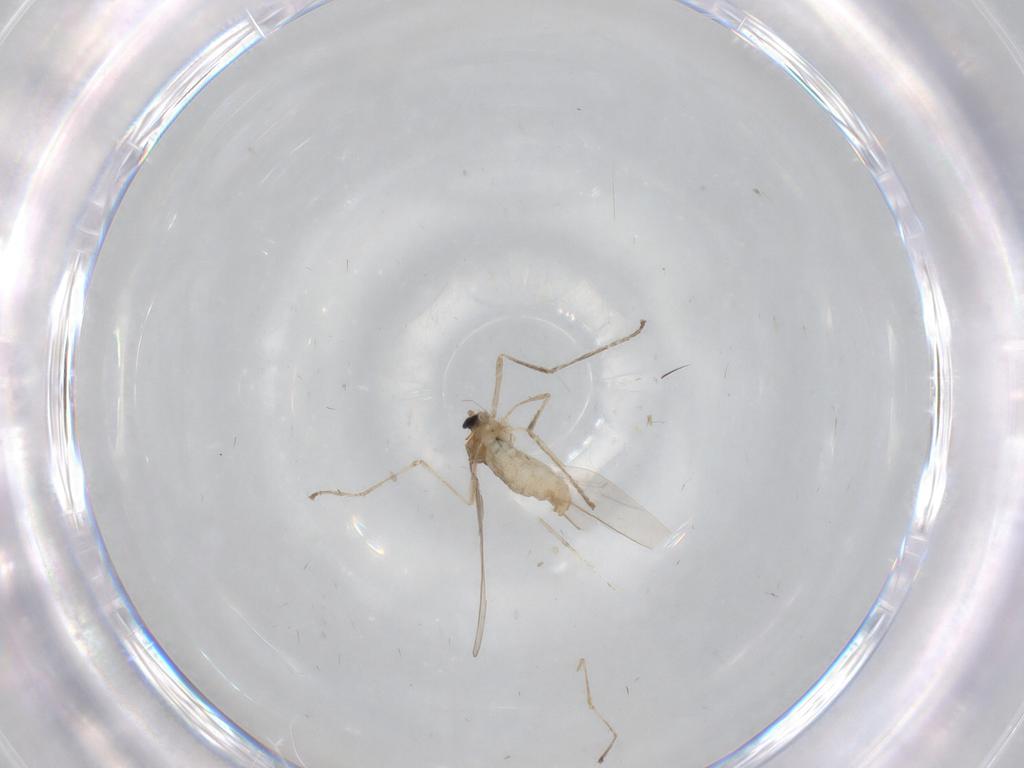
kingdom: Animalia
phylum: Arthropoda
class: Insecta
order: Diptera
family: Cecidomyiidae
